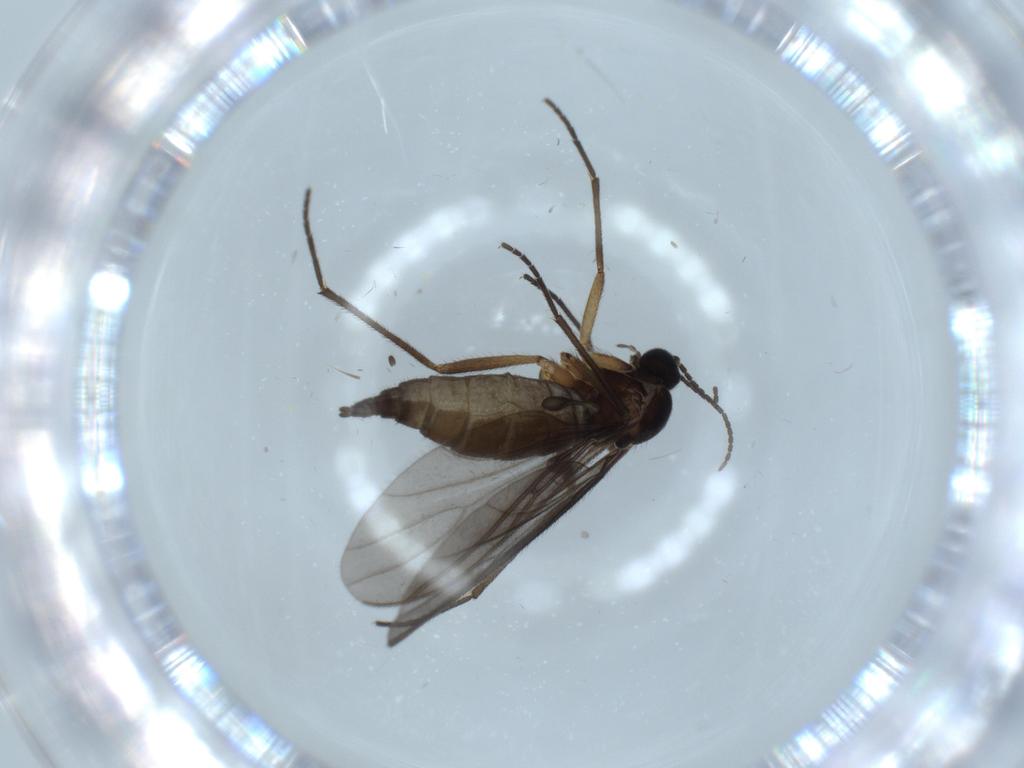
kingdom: Animalia
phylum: Arthropoda
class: Insecta
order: Diptera
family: Sciaridae
